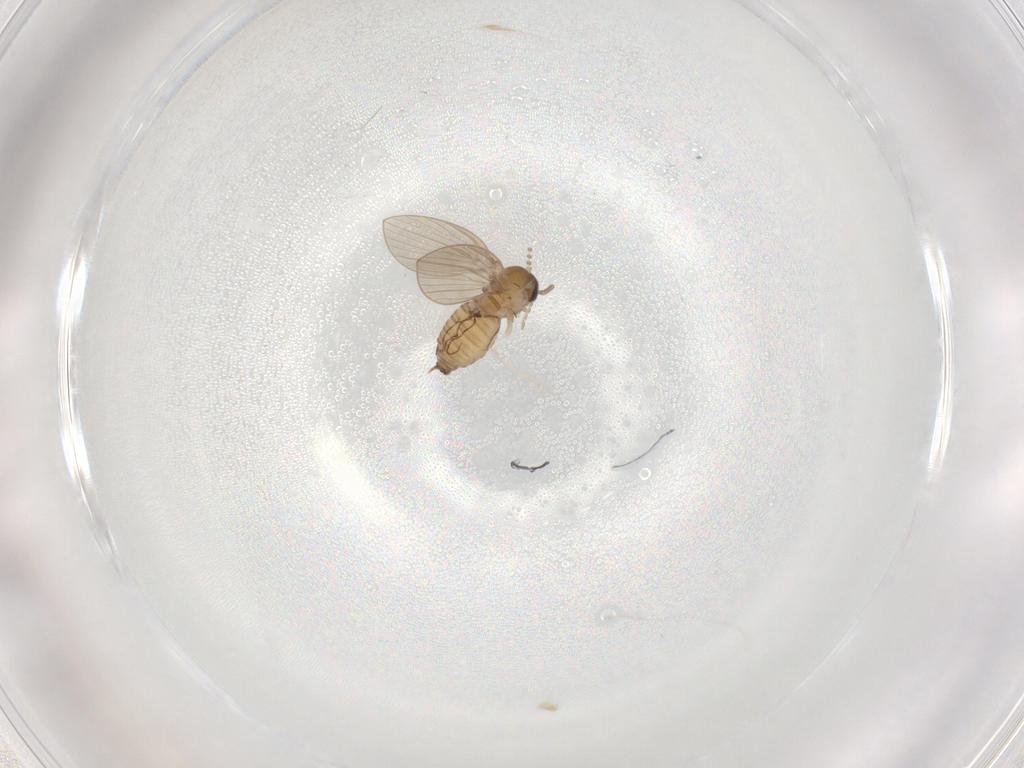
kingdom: Animalia
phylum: Arthropoda
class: Insecta
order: Diptera
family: Psychodidae
